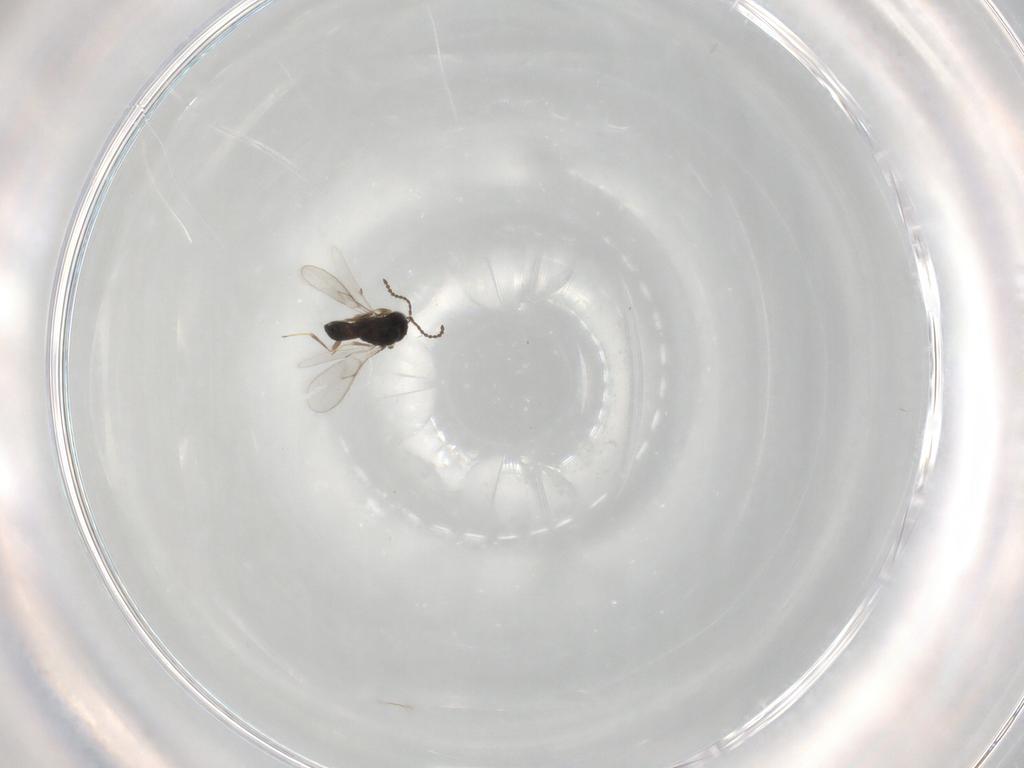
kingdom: Animalia
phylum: Arthropoda
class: Insecta
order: Hymenoptera
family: Scelionidae
